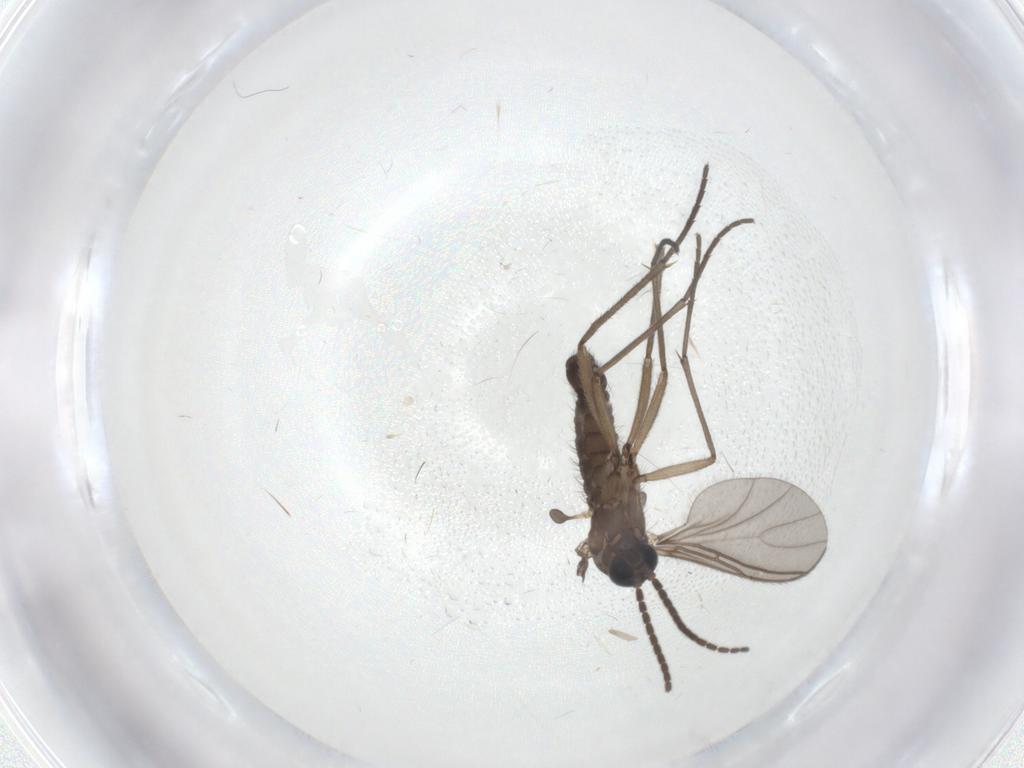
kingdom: Animalia
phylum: Arthropoda
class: Insecta
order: Diptera
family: Sciaridae
